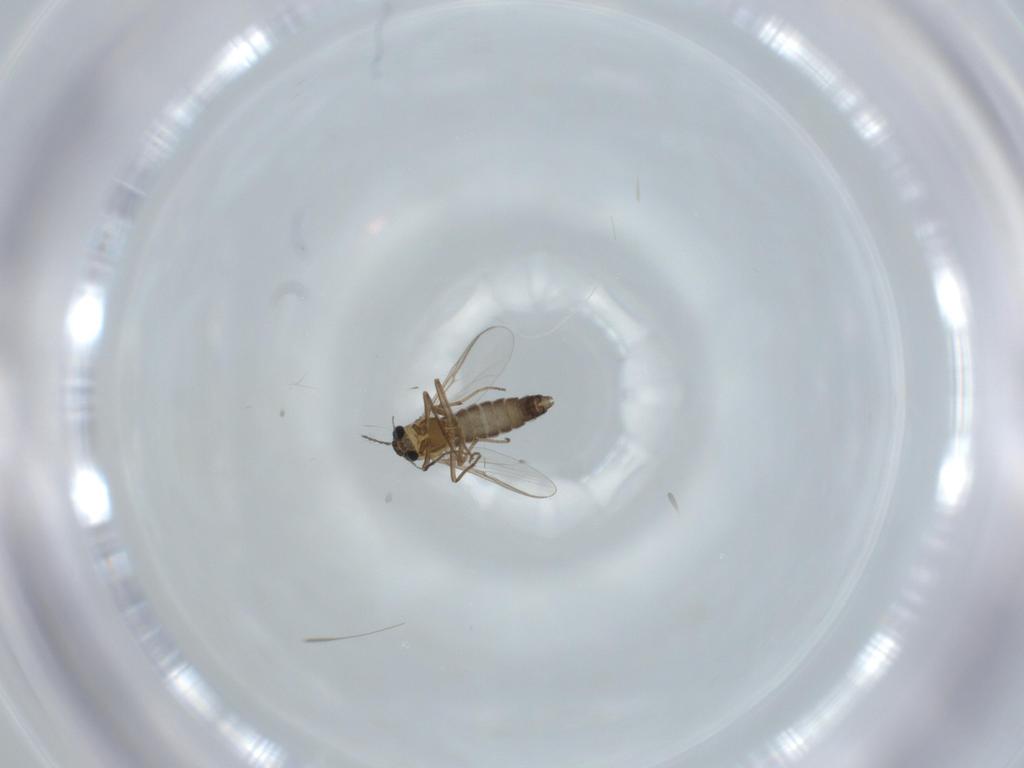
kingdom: Animalia
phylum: Arthropoda
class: Insecta
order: Diptera
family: Chironomidae
